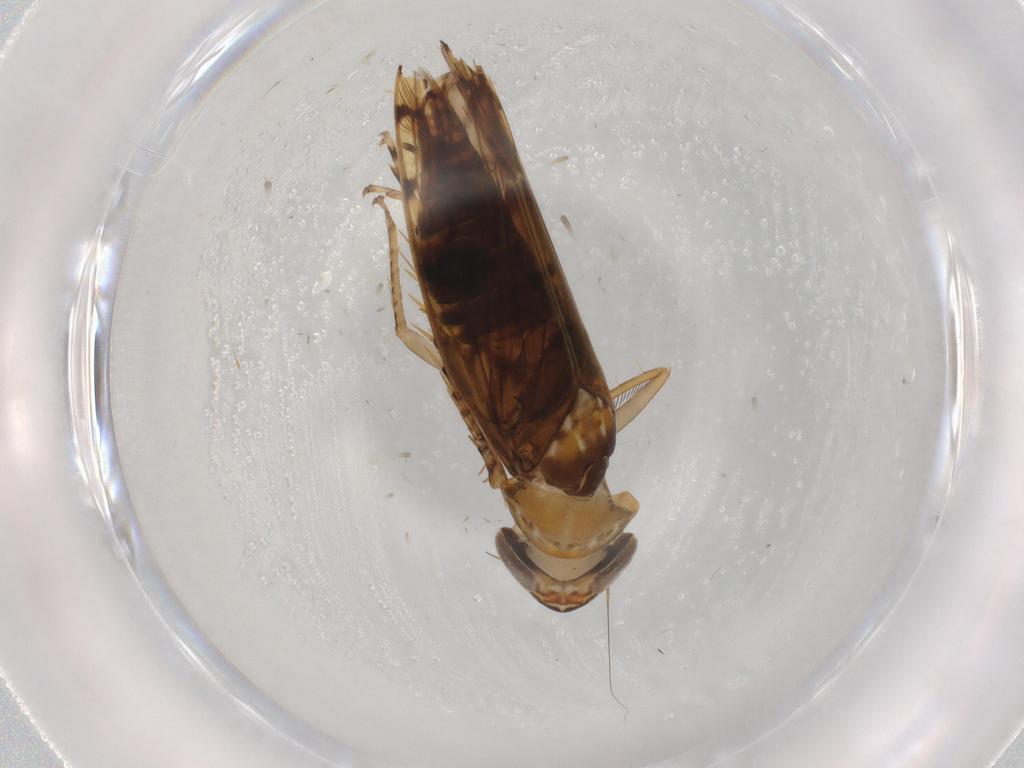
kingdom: Animalia
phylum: Arthropoda
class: Insecta
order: Hemiptera
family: Cicadellidae
